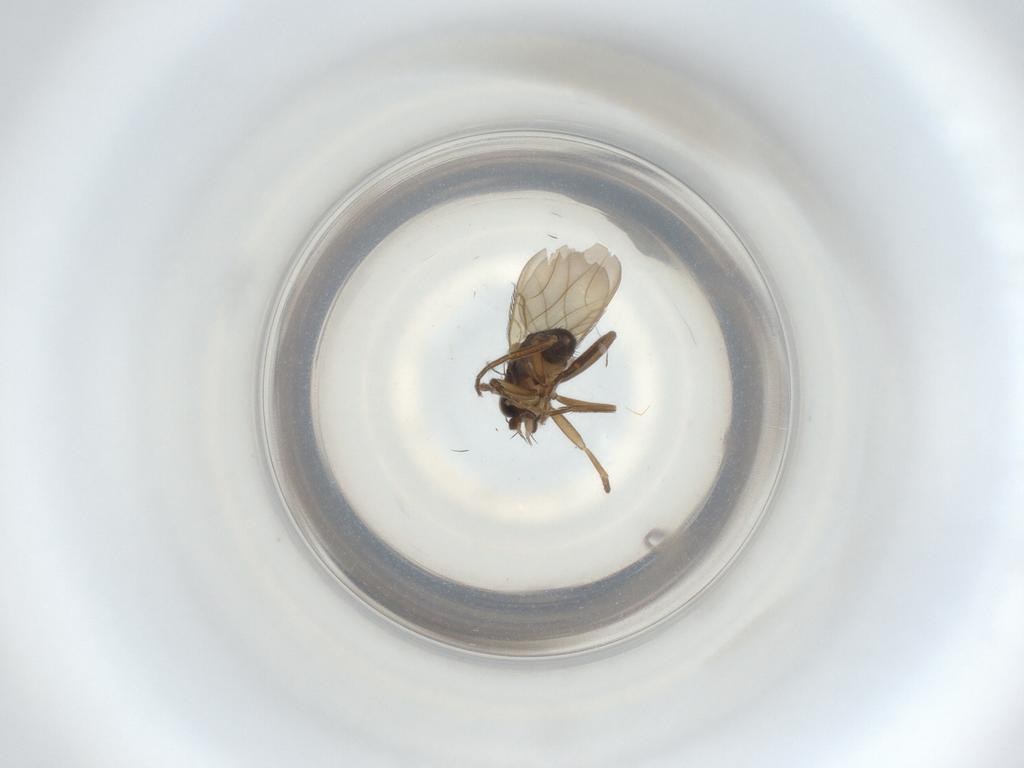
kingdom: Animalia
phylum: Arthropoda
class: Insecta
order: Diptera
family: Phoridae
